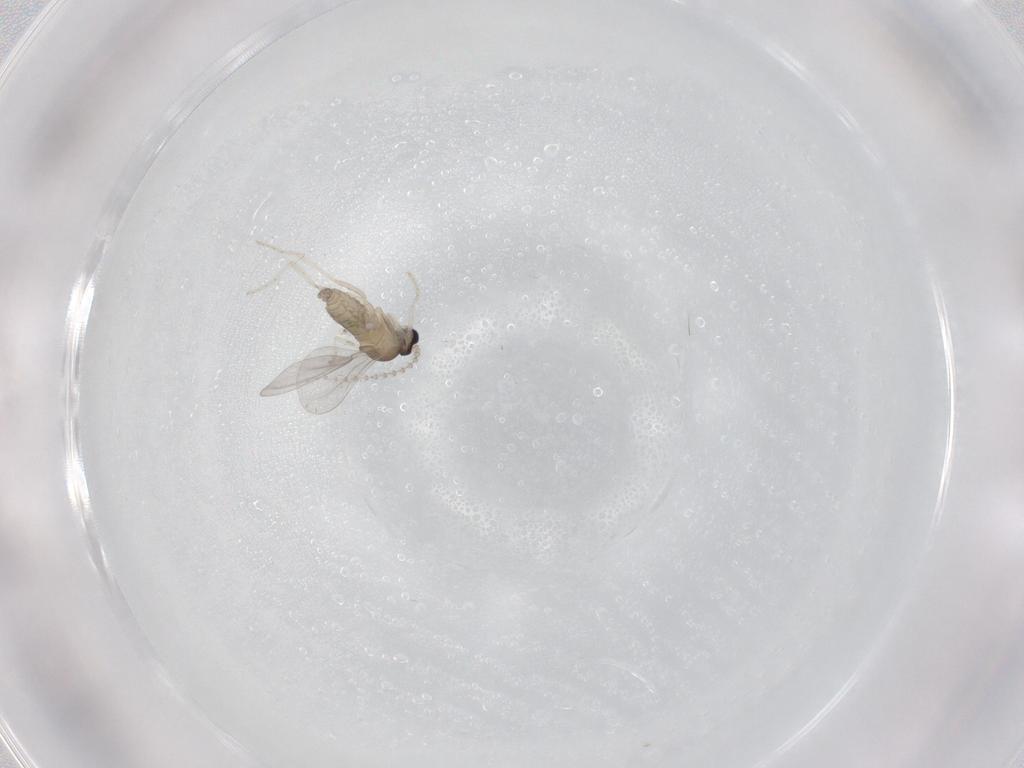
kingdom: Animalia
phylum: Arthropoda
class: Insecta
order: Diptera
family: Cecidomyiidae
